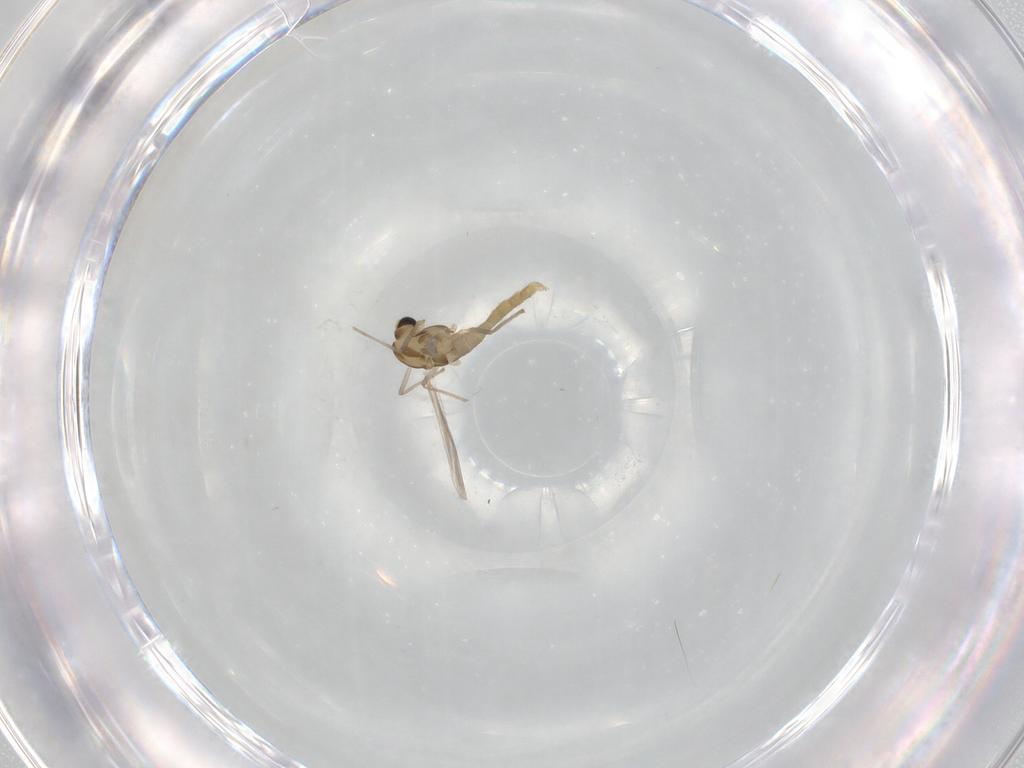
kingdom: Animalia
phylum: Arthropoda
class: Insecta
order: Diptera
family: Chironomidae
